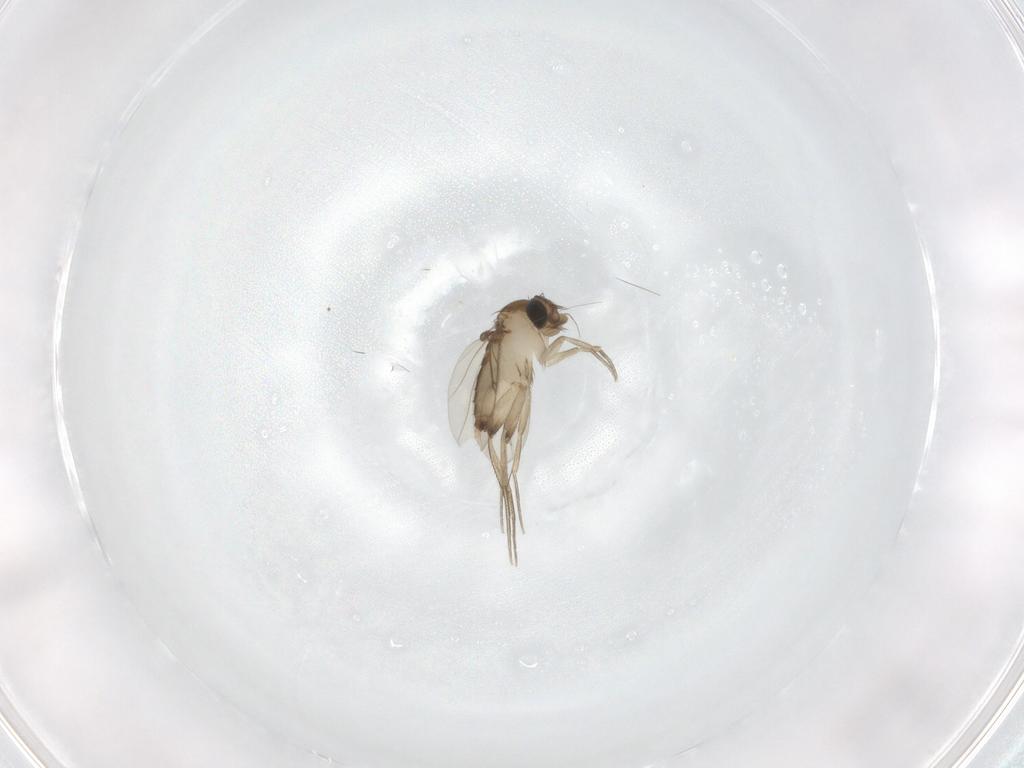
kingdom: Animalia
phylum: Arthropoda
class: Insecta
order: Diptera
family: Phoridae
